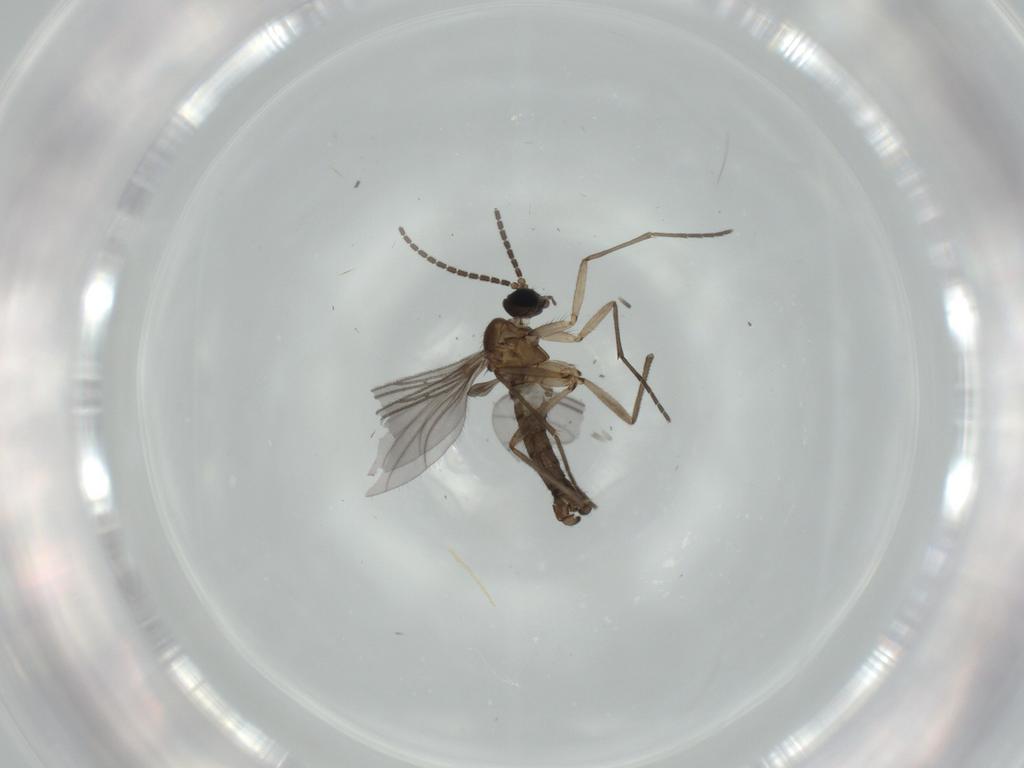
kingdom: Animalia
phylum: Arthropoda
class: Insecta
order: Diptera
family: Sciaridae
